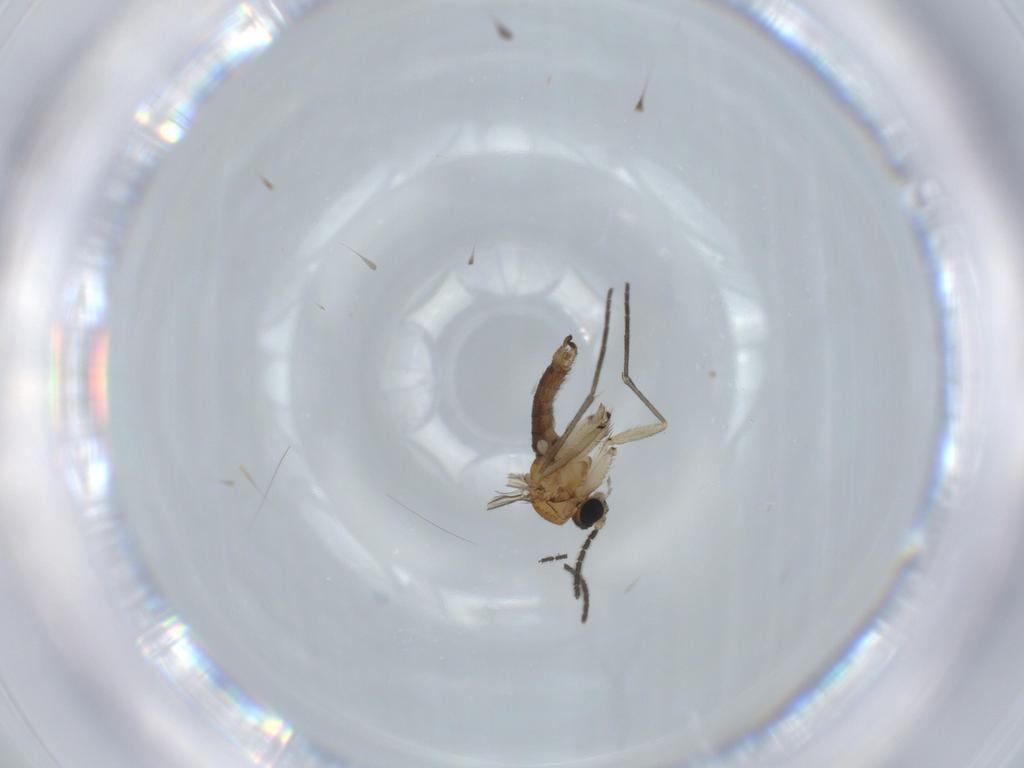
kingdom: Animalia
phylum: Arthropoda
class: Insecta
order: Diptera
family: Sciaridae
